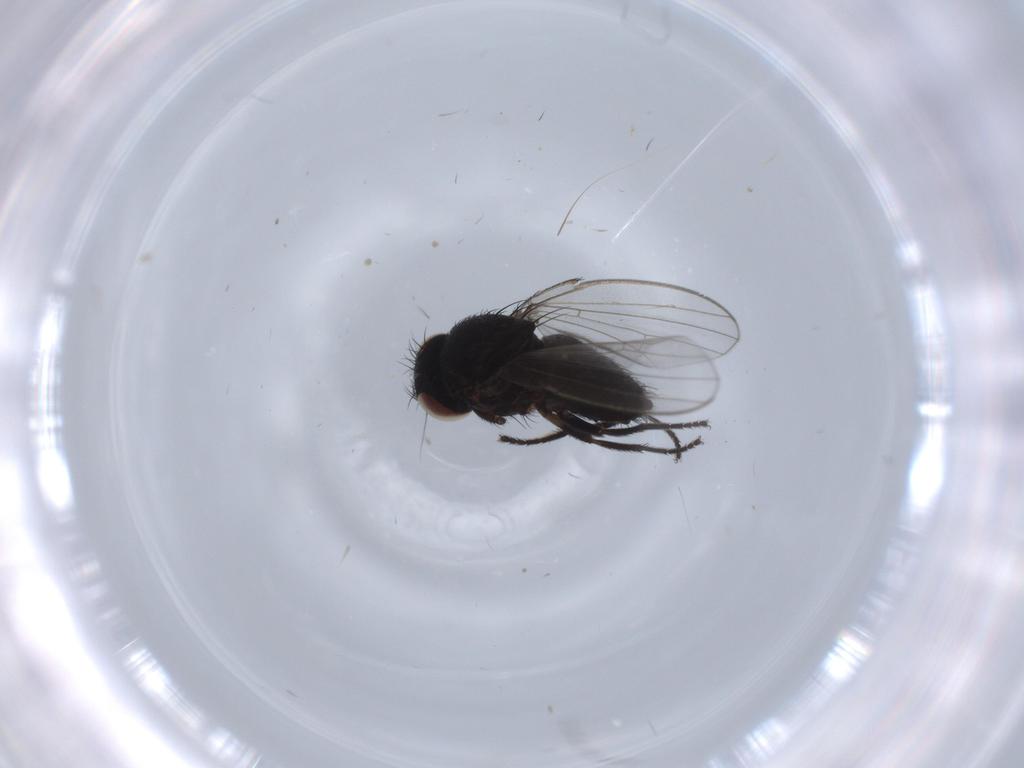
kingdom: Animalia
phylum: Arthropoda
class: Insecta
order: Diptera
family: Milichiidae
